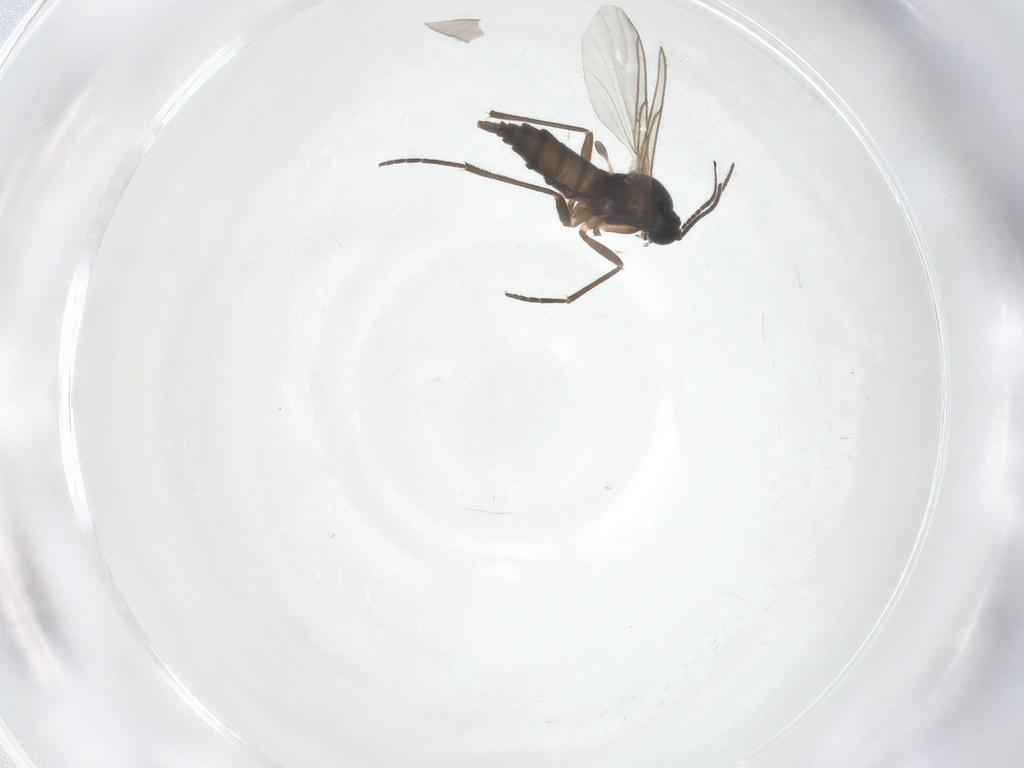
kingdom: Animalia
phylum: Arthropoda
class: Insecta
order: Diptera
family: Sciaridae
